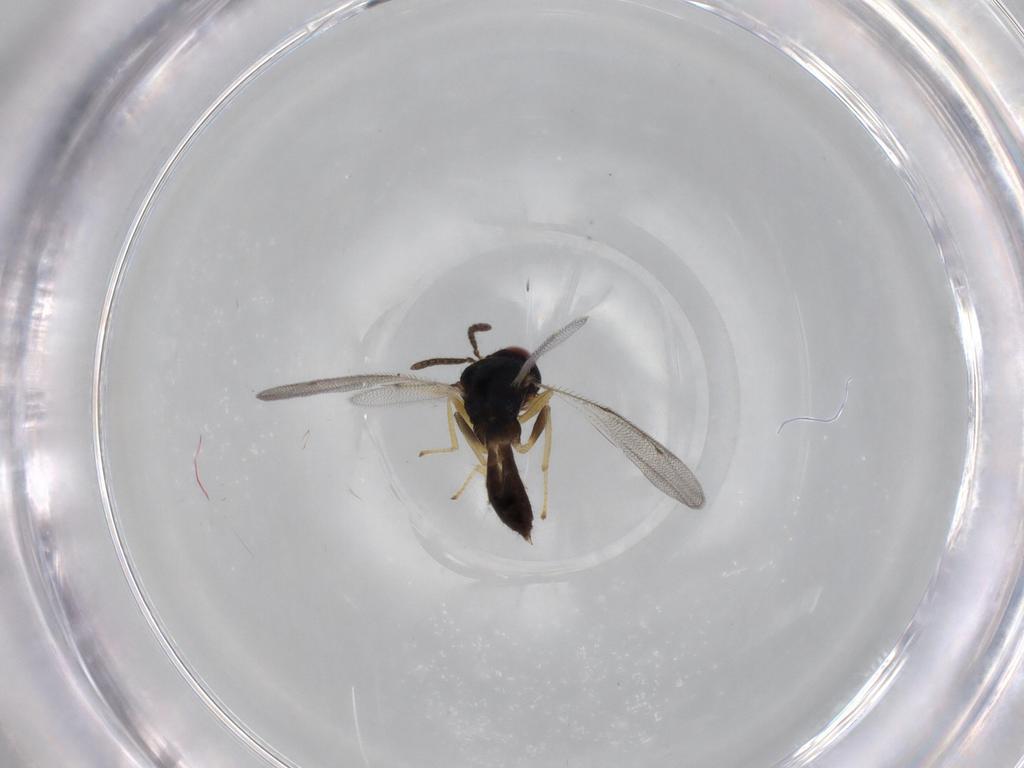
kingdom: Animalia
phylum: Arthropoda
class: Insecta
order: Hymenoptera
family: Pteromalidae
